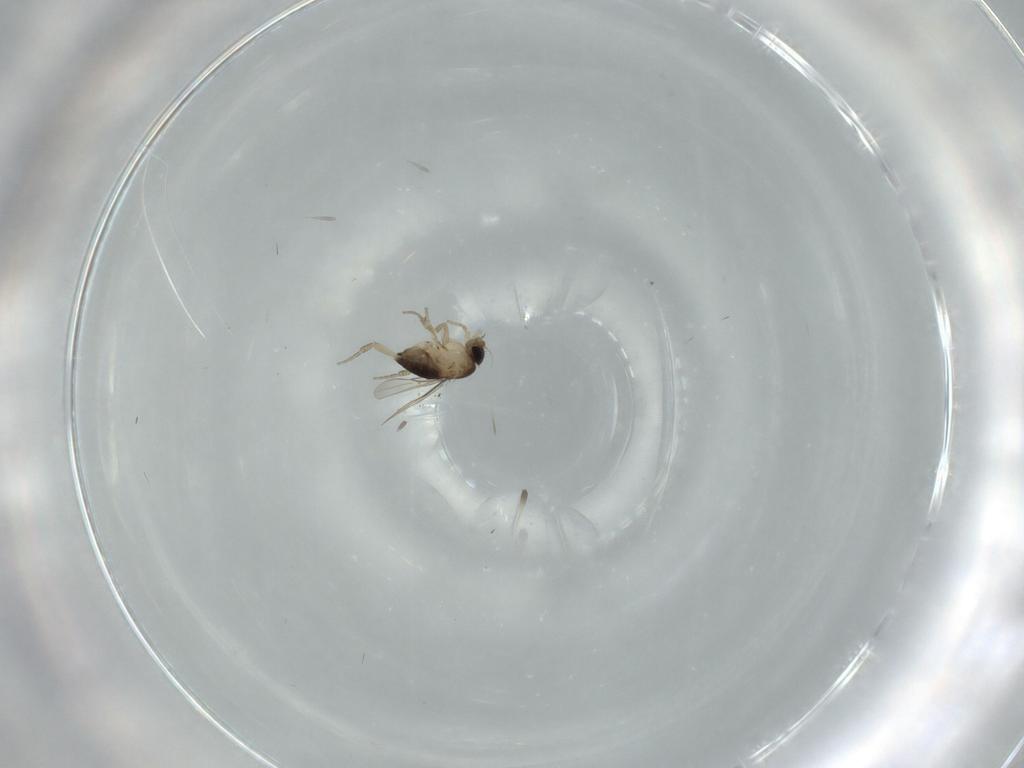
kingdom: Animalia
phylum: Arthropoda
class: Insecta
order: Diptera
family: Phoridae
